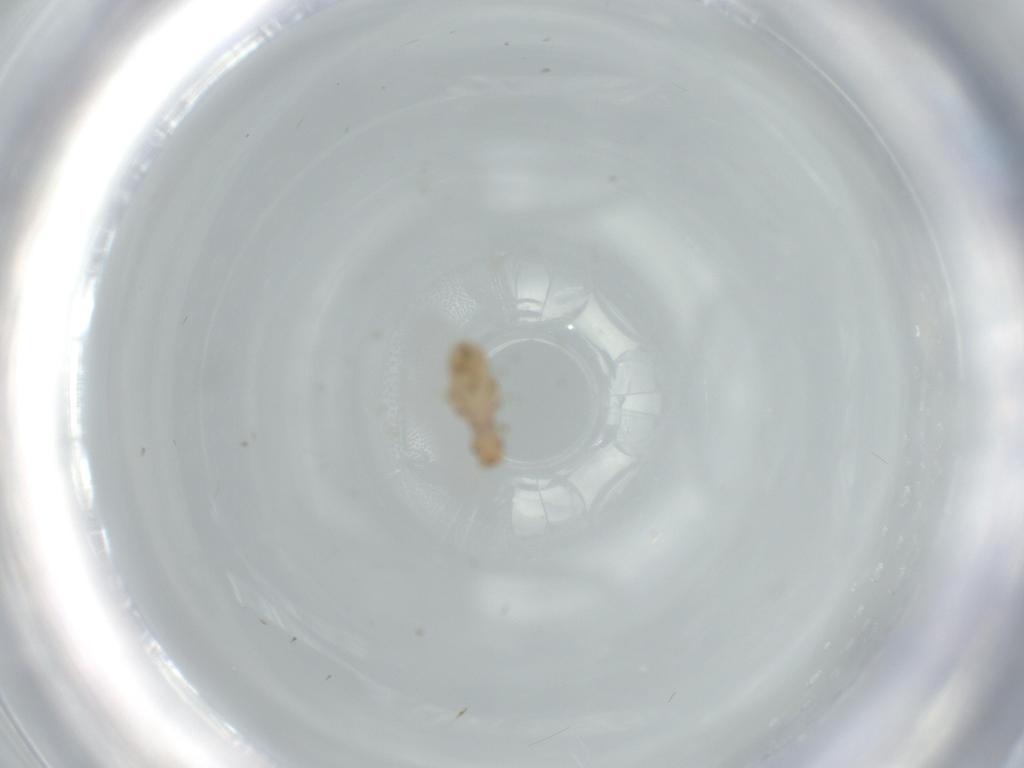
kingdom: Animalia
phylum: Arthropoda
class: Insecta
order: Psocodea
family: Liposcelididae
